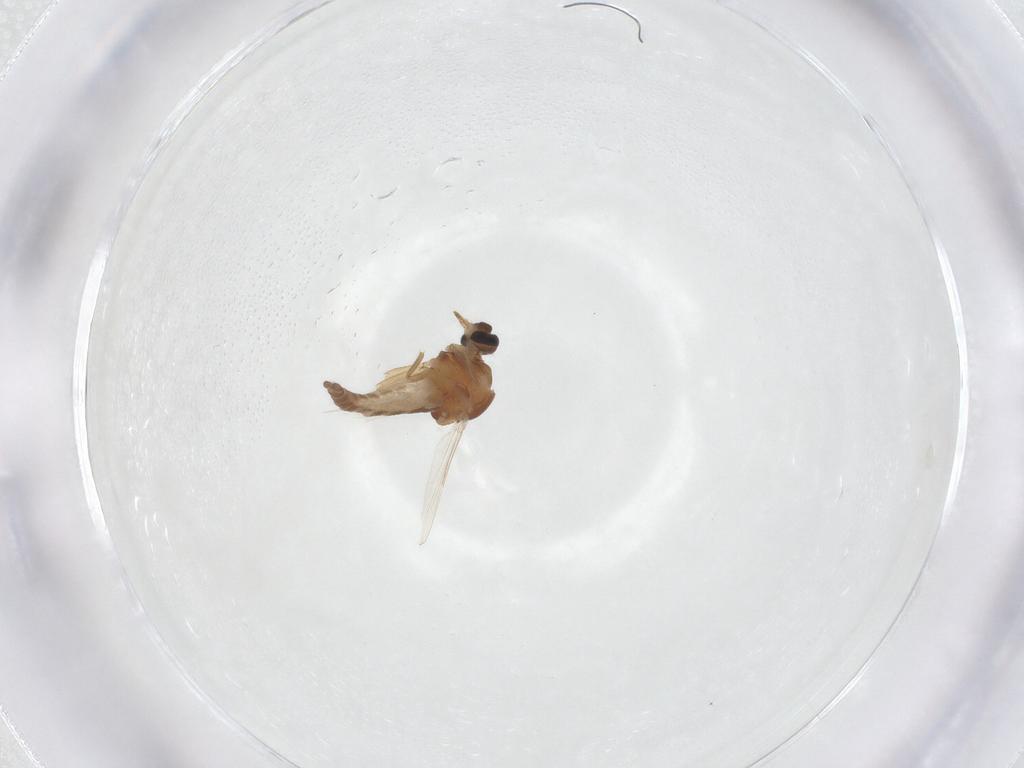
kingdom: Animalia
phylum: Arthropoda
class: Insecta
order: Diptera
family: Ceratopogonidae
